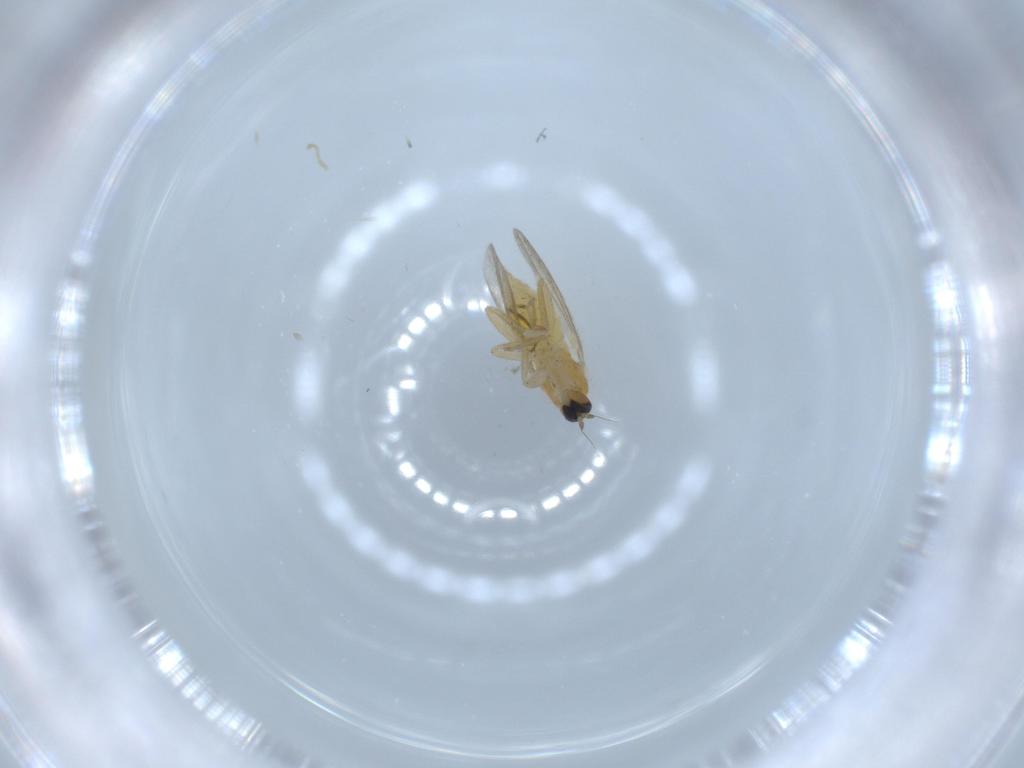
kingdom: Animalia
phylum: Arthropoda
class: Insecta
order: Diptera
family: Hybotidae
